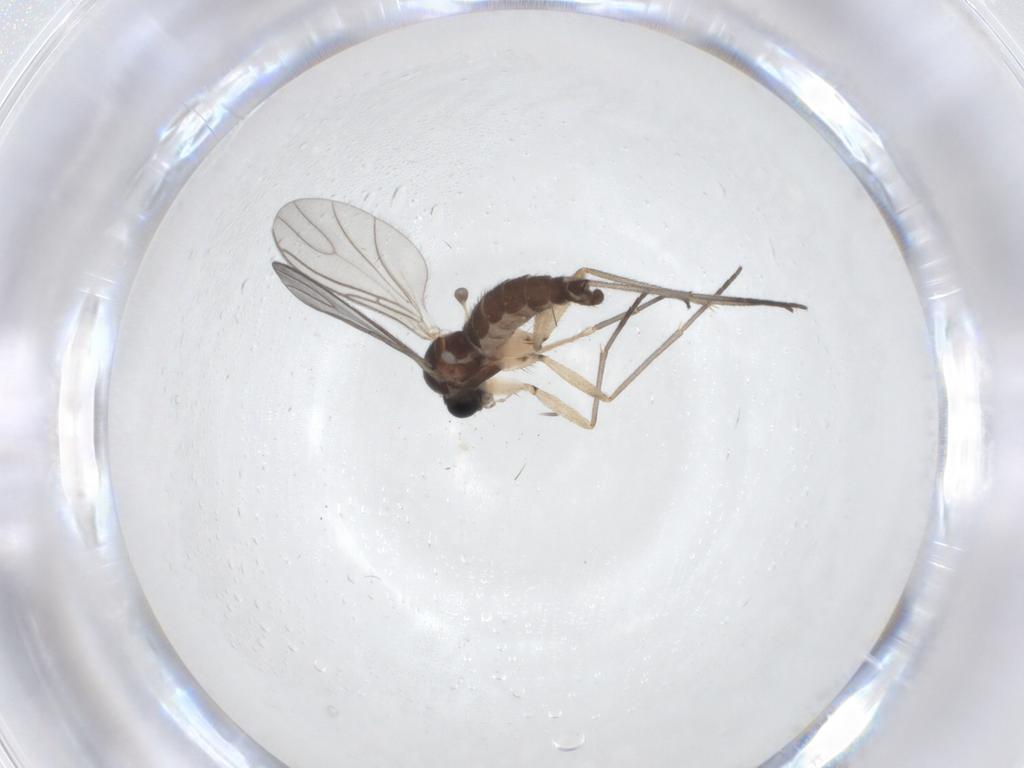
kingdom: Animalia
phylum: Arthropoda
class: Insecta
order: Diptera
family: Sciaridae
